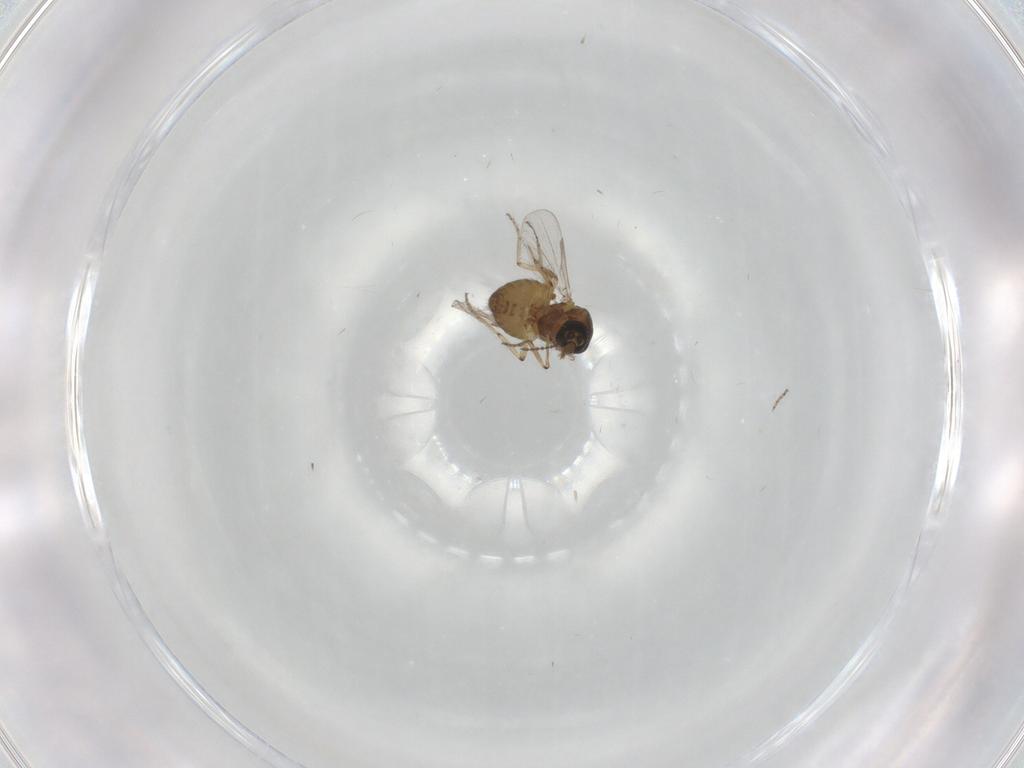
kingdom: Animalia
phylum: Arthropoda
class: Insecta
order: Diptera
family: Ceratopogonidae
